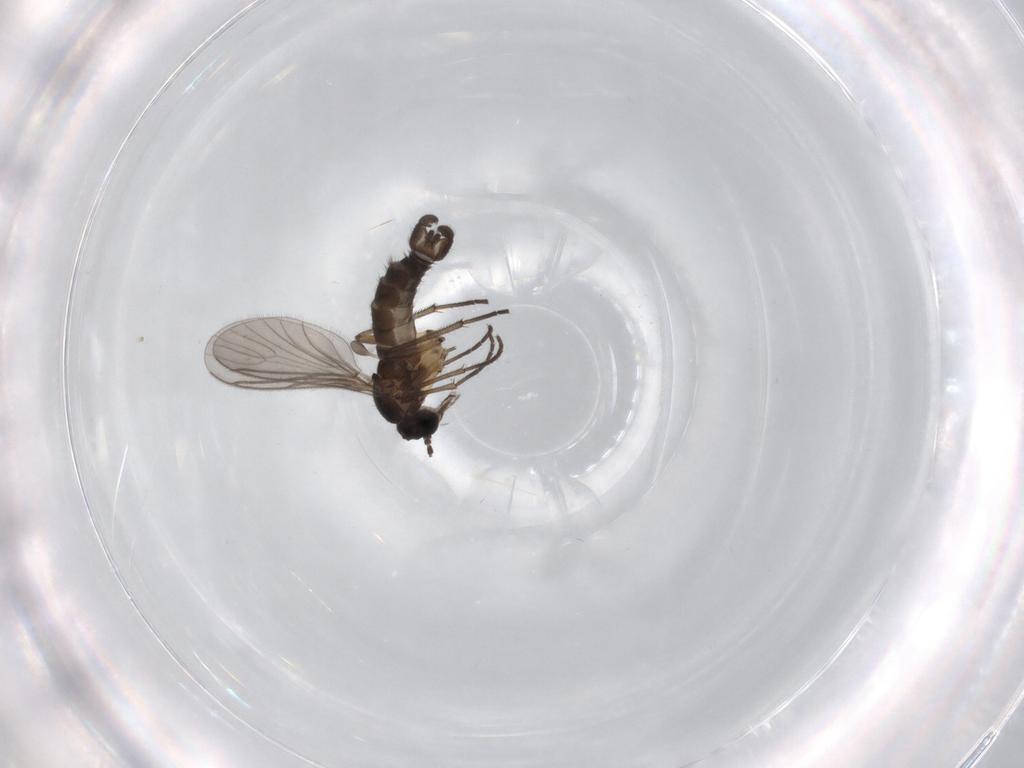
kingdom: Animalia
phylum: Arthropoda
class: Insecta
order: Diptera
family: Sciaridae
